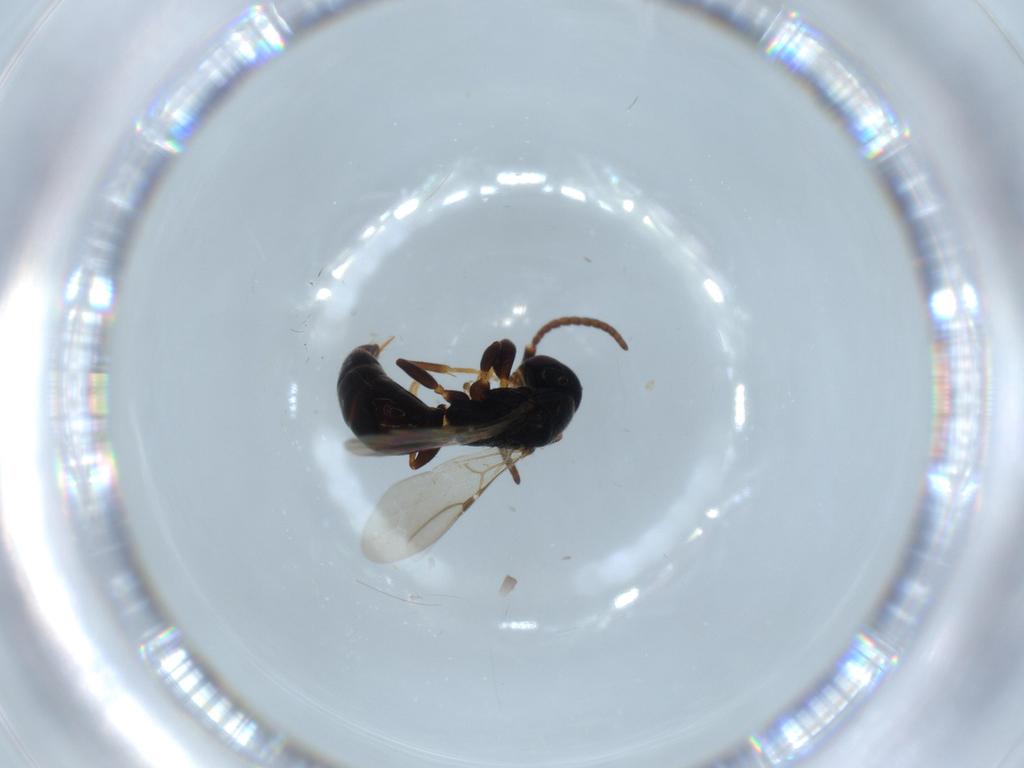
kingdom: Animalia
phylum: Arthropoda
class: Insecta
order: Hymenoptera
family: Bethylidae
